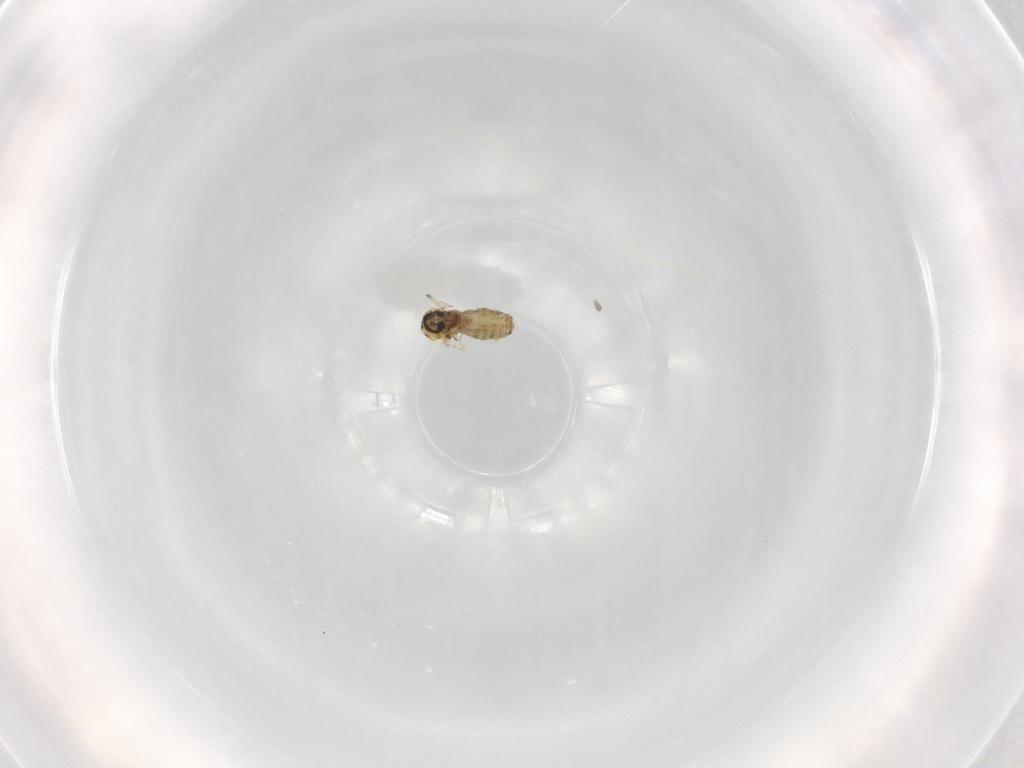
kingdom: Animalia
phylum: Arthropoda
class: Insecta
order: Diptera
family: Ceratopogonidae
